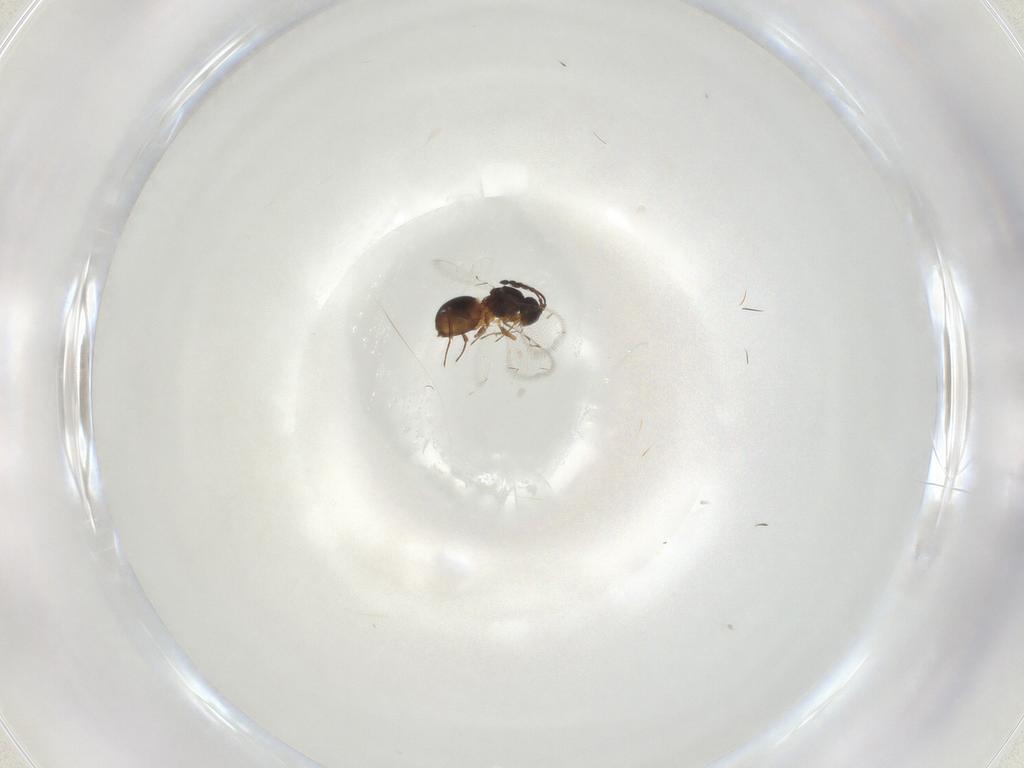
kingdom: Animalia
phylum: Arthropoda
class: Insecta
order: Hymenoptera
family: Figitidae
